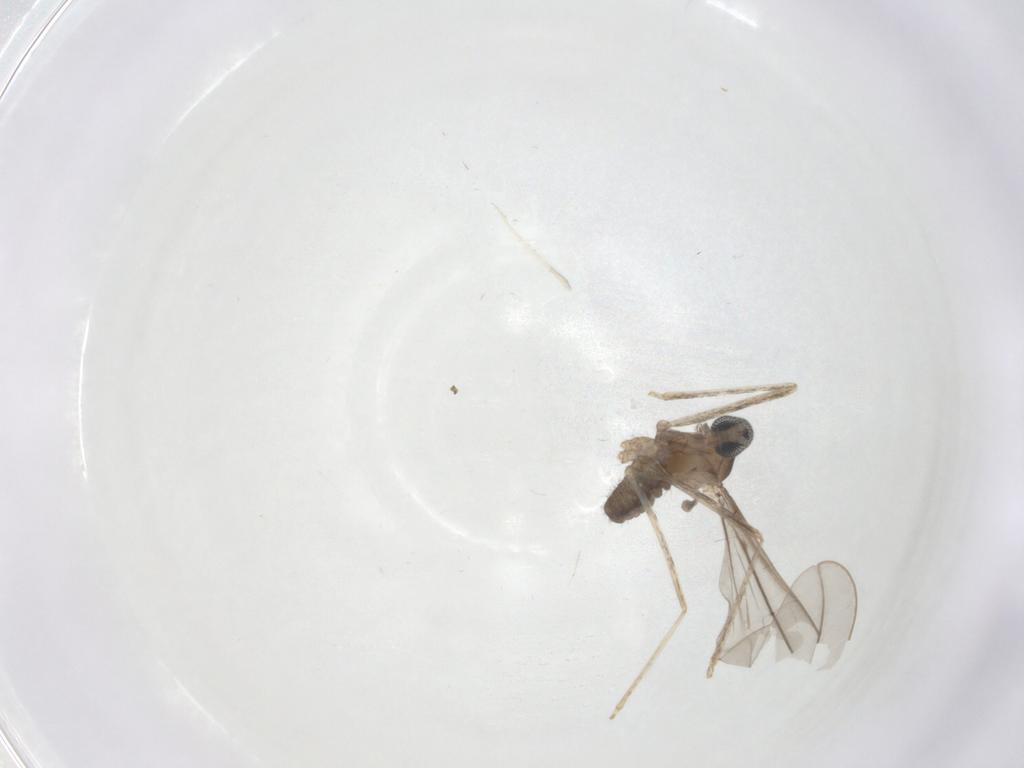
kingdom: Animalia
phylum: Arthropoda
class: Insecta
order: Diptera
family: Cecidomyiidae
